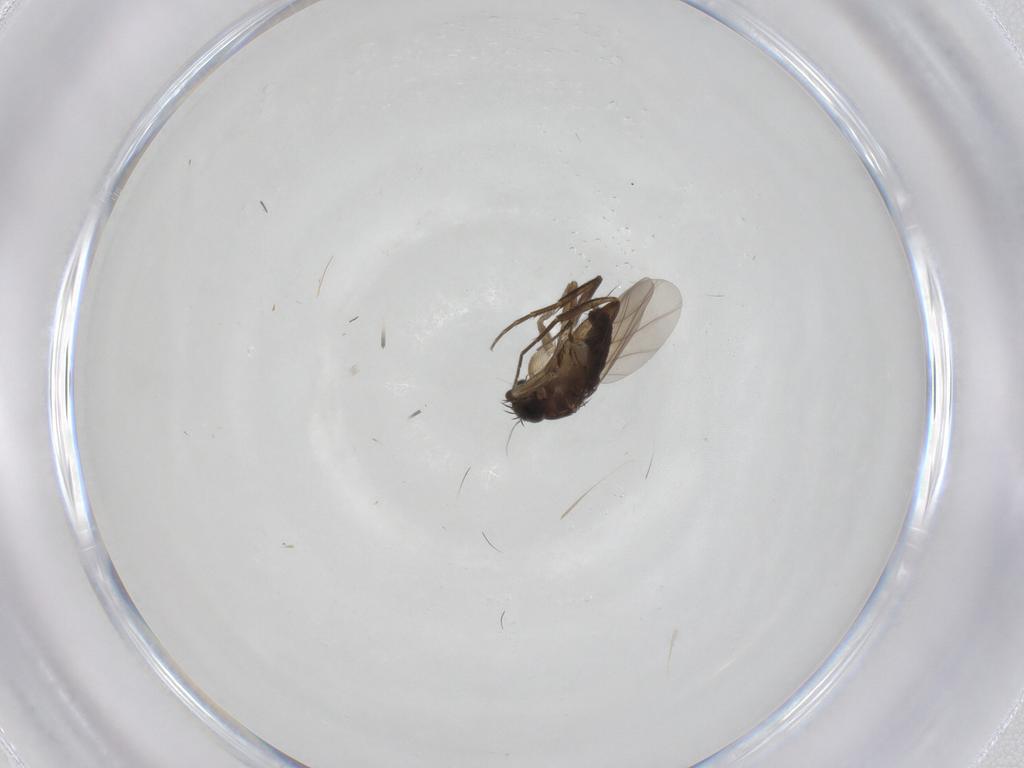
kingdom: Animalia
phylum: Arthropoda
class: Insecta
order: Diptera
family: Phoridae
